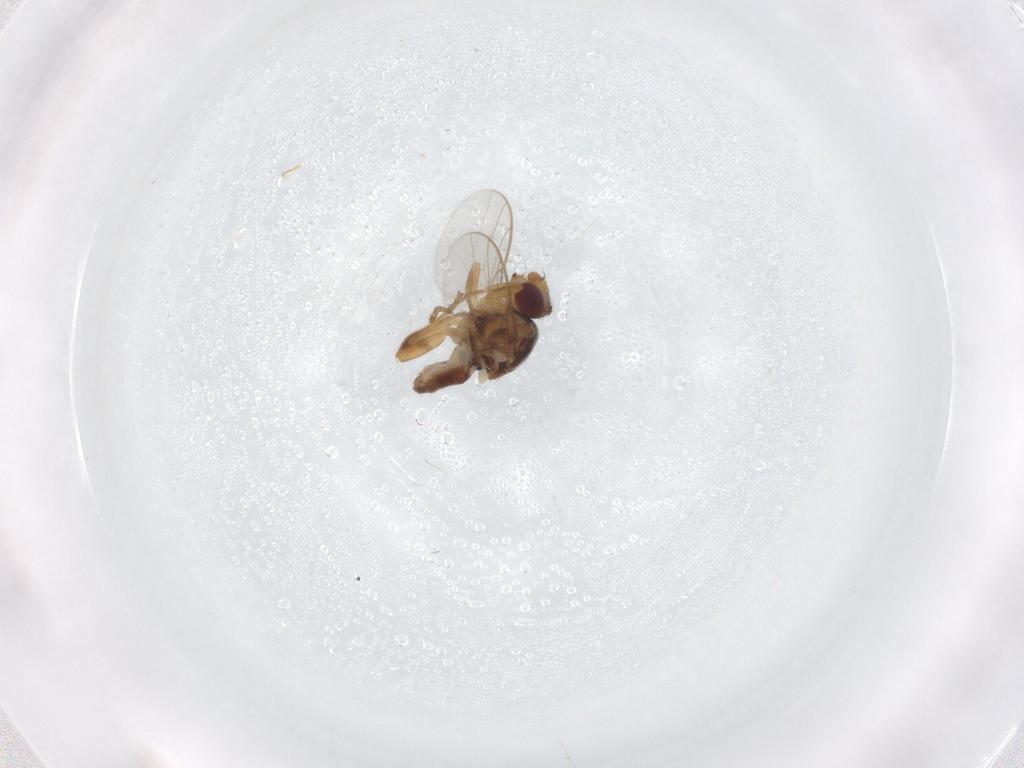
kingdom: Animalia
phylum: Arthropoda
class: Insecta
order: Diptera
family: Chloropidae
